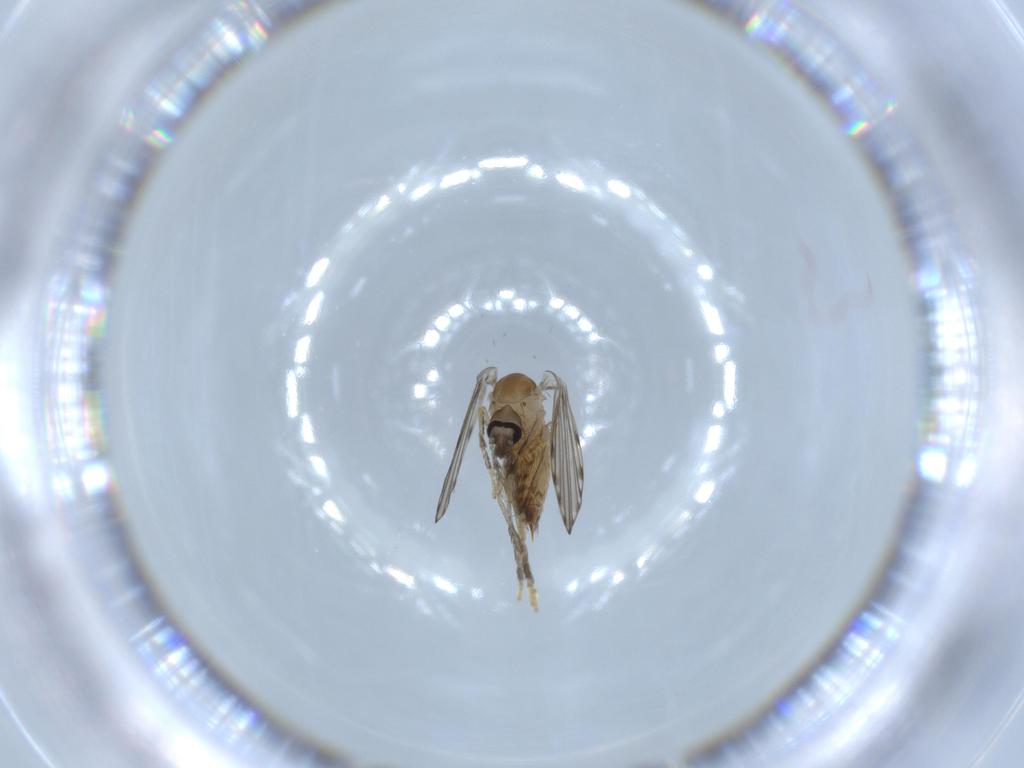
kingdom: Animalia
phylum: Arthropoda
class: Insecta
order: Diptera
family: Psychodidae
